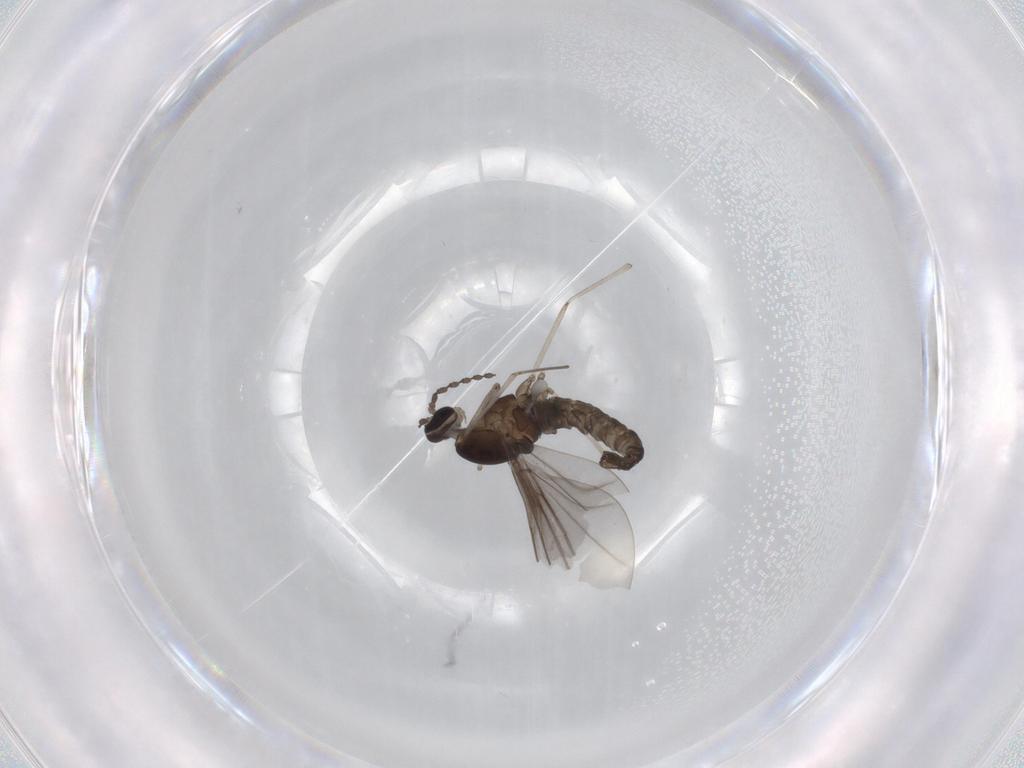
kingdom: Animalia
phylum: Arthropoda
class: Insecta
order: Diptera
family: Cecidomyiidae
